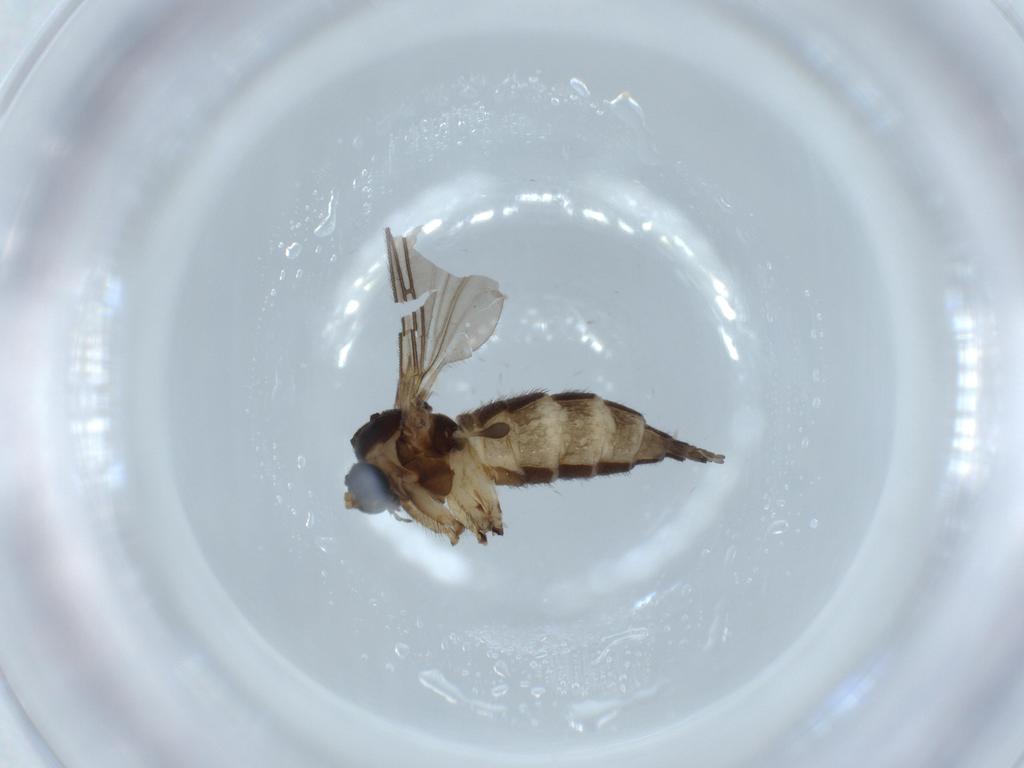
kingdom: Animalia
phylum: Arthropoda
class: Insecta
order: Diptera
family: Sciaridae
